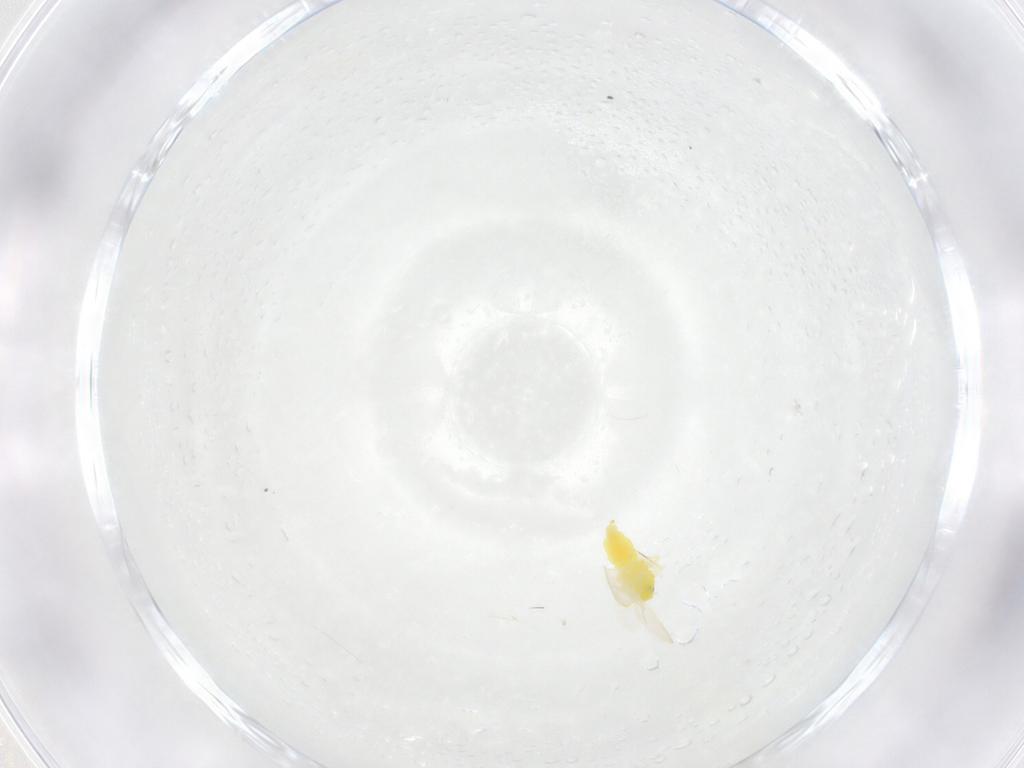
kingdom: Animalia
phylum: Arthropoda
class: Insecta
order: Hemiptera
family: Aleyrodidae
